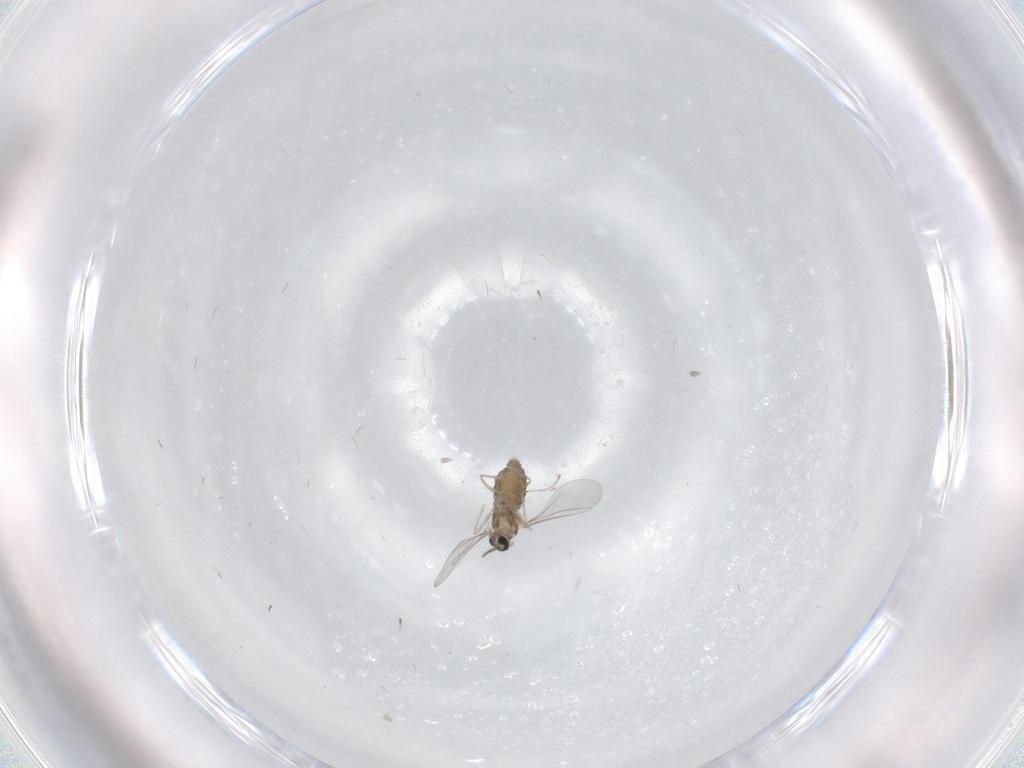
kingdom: Animalia
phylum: Arthropoda
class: Insecta
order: Diptera
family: Cecidomyiidae
